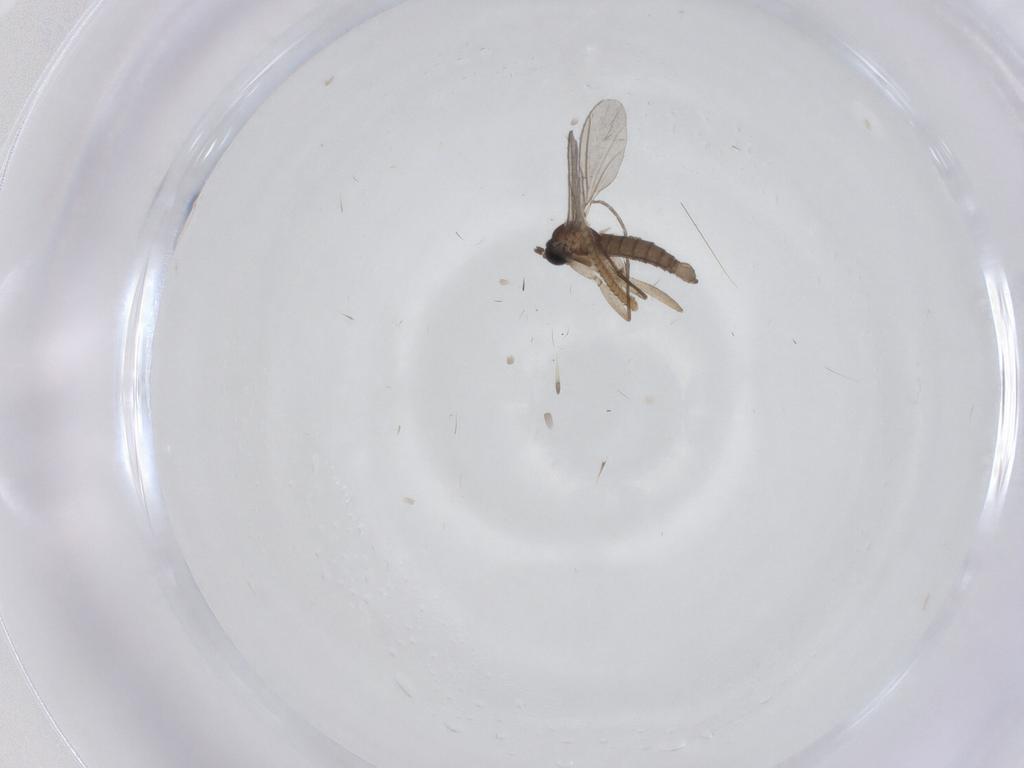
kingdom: Animalia
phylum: Arthropoda
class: Insecta
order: Diptera
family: Sciaridae
